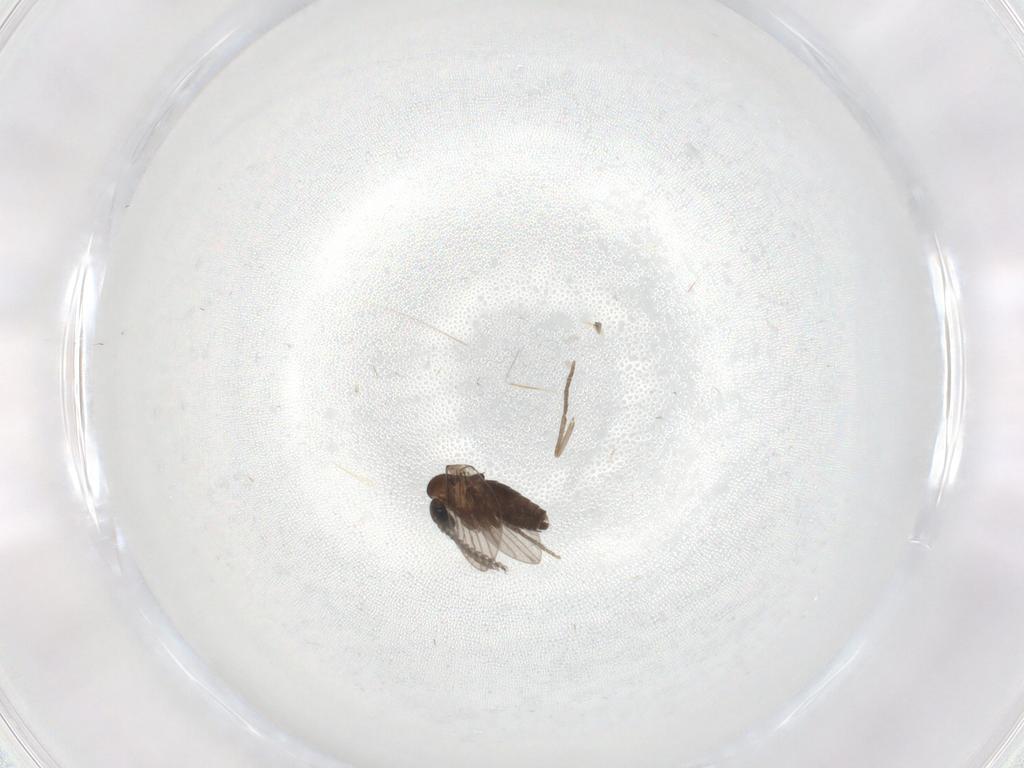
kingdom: Animalia
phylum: Arthropoda
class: Insecta
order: Diptera
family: Psychodidae
